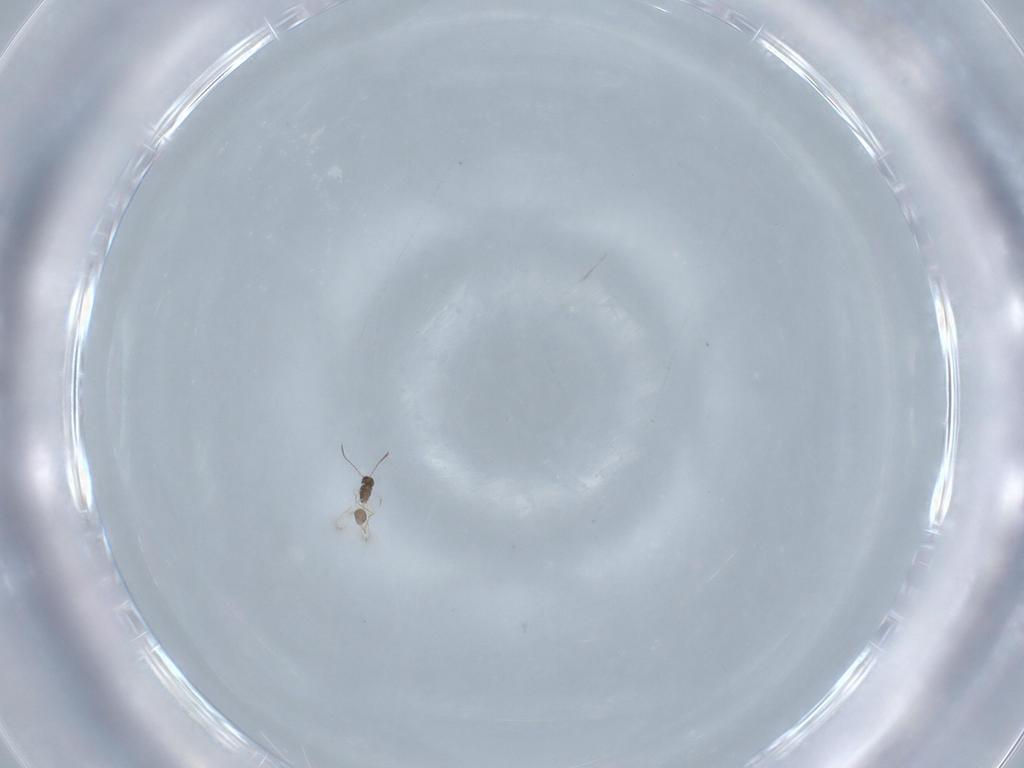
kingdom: Animalia
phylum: Arthropoda
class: Insecta
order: Hymenoptera
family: Mymarommatidae
